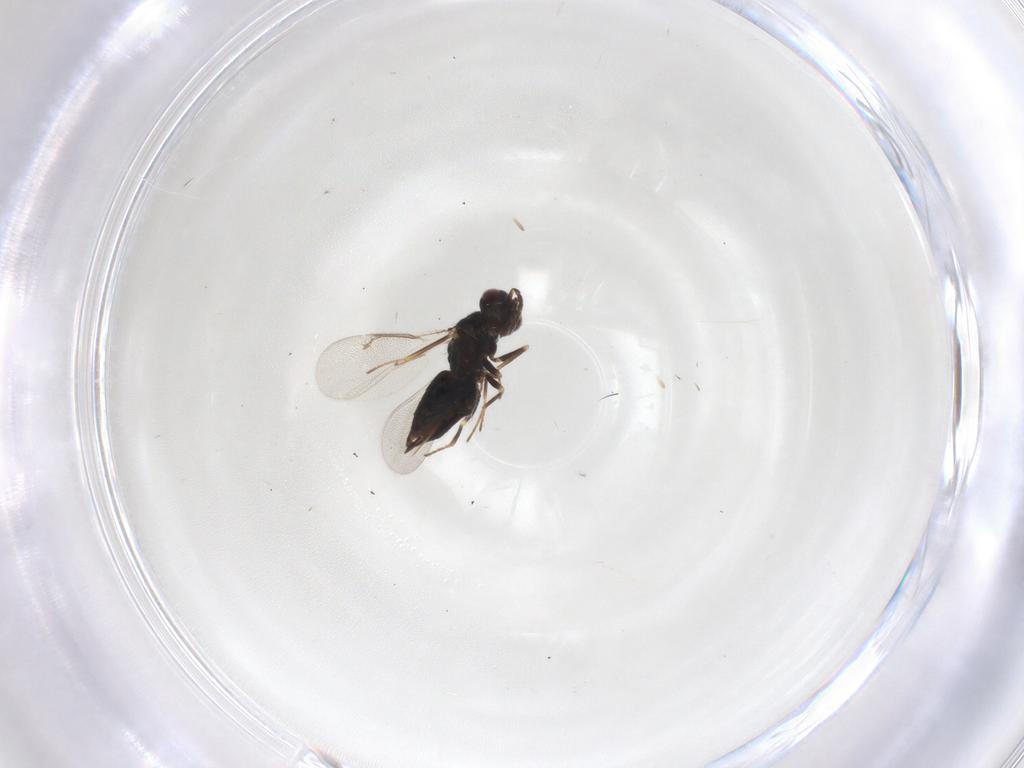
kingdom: Animalia
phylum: Arthropoda
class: Insecta
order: Hymenoptera
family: Eulophidae
